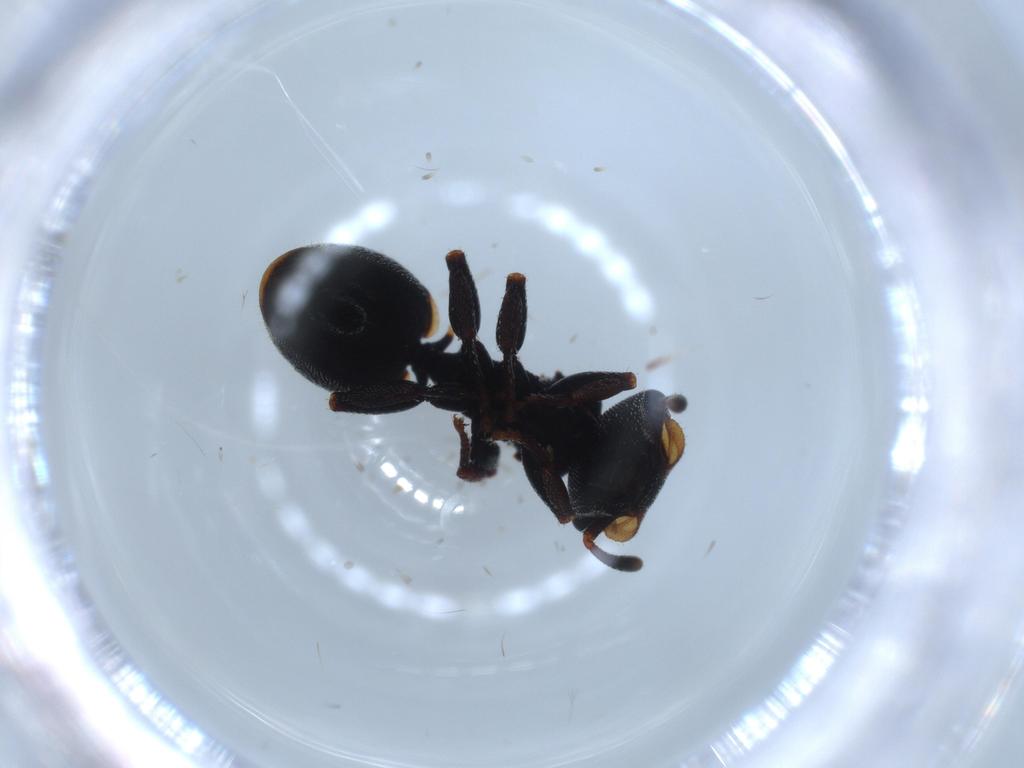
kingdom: Animalia
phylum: Arthropoda
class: Insecta
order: Hymenoptera
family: Formicidae
